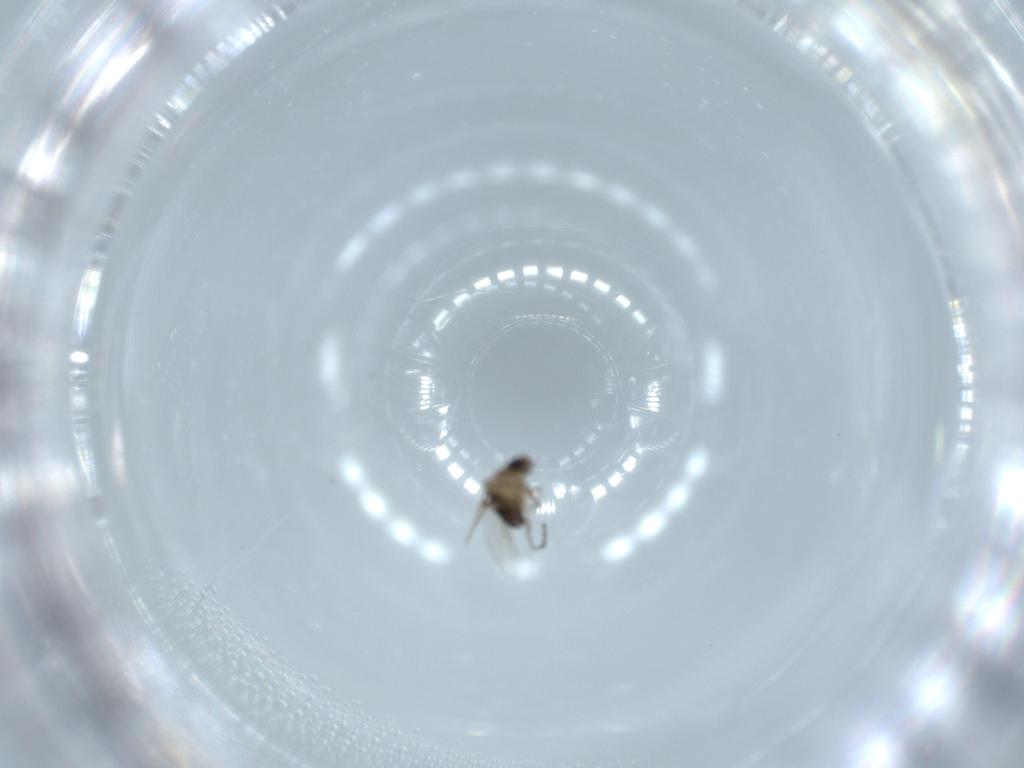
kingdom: Animalia
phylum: Arthropoda
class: Insecta
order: Diptera
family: Phoridae
